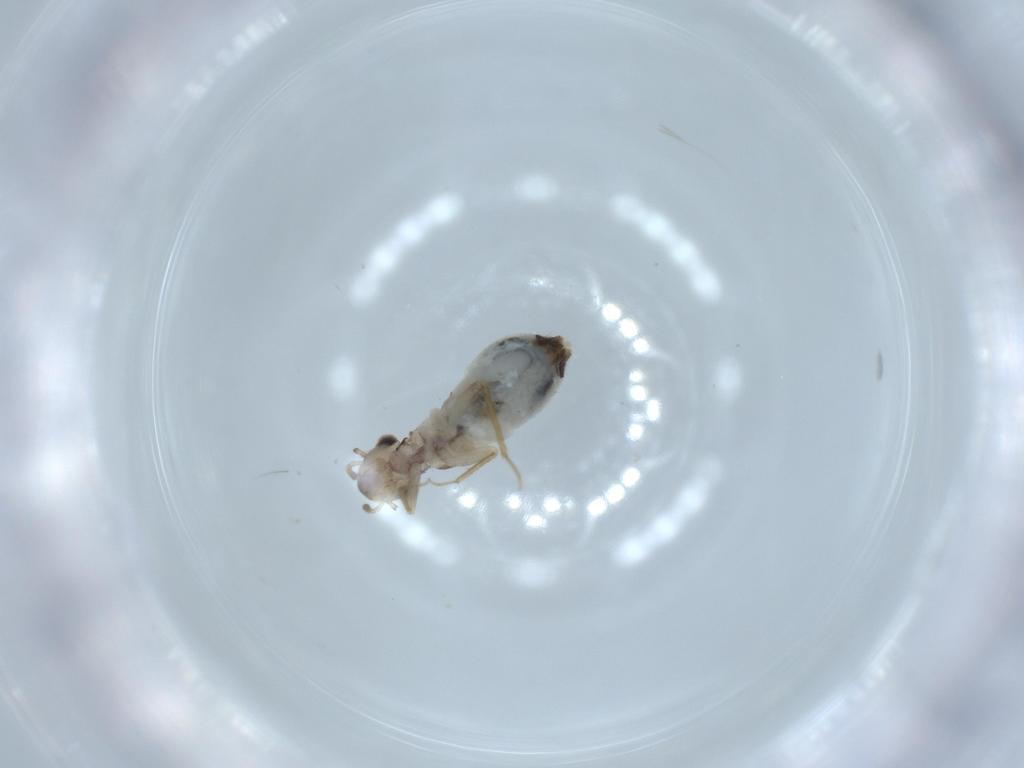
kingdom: Animalia
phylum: Arthropoda
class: Insecta
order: Psocodea
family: Lepidopsocidae
